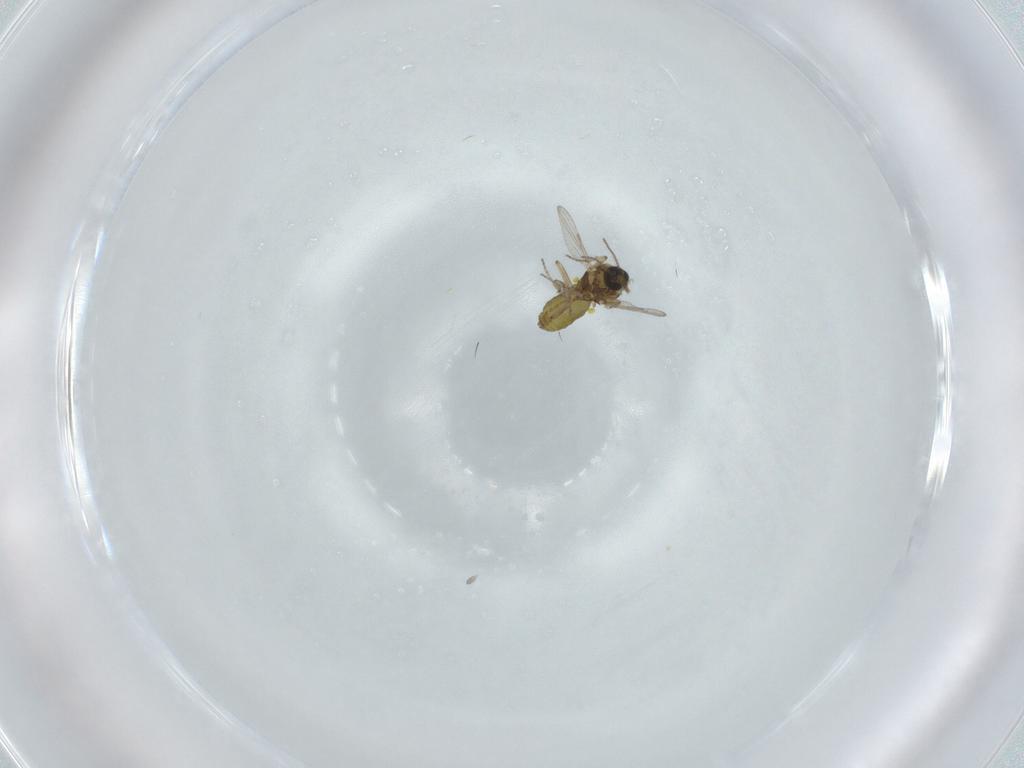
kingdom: Animalia
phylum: Arthropoda
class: Insecta
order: Diptera
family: Ceratopogonidae
